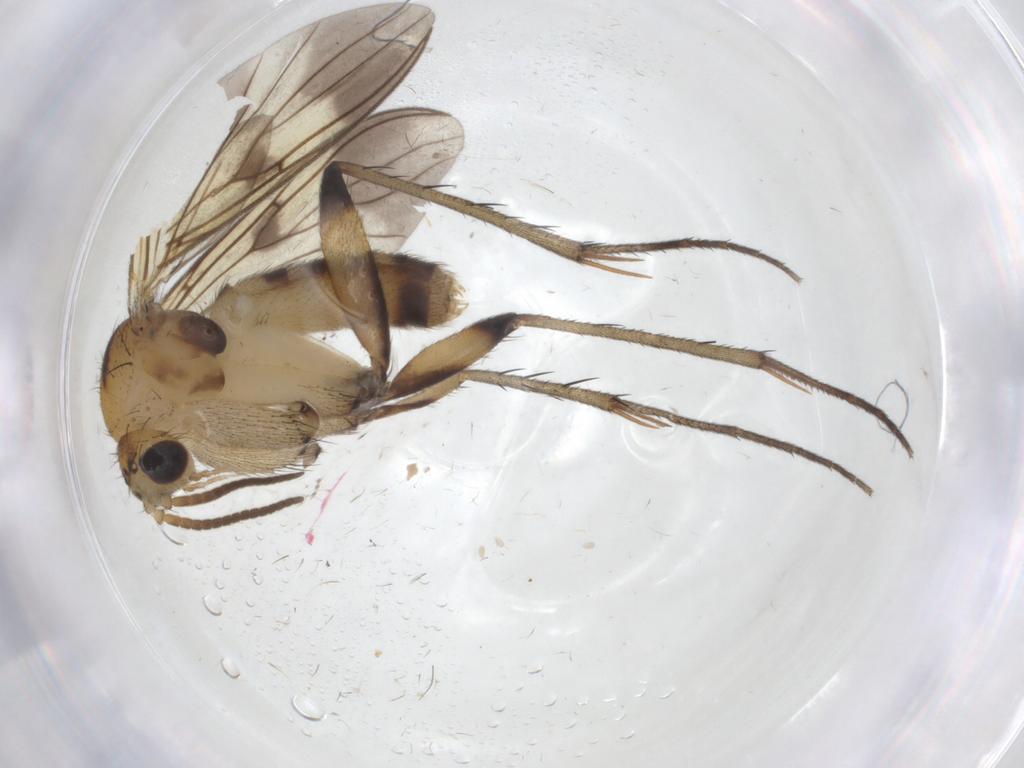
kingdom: Animalia
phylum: Arthropoda
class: Insecta
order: Diptera
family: Mycetophilidae
